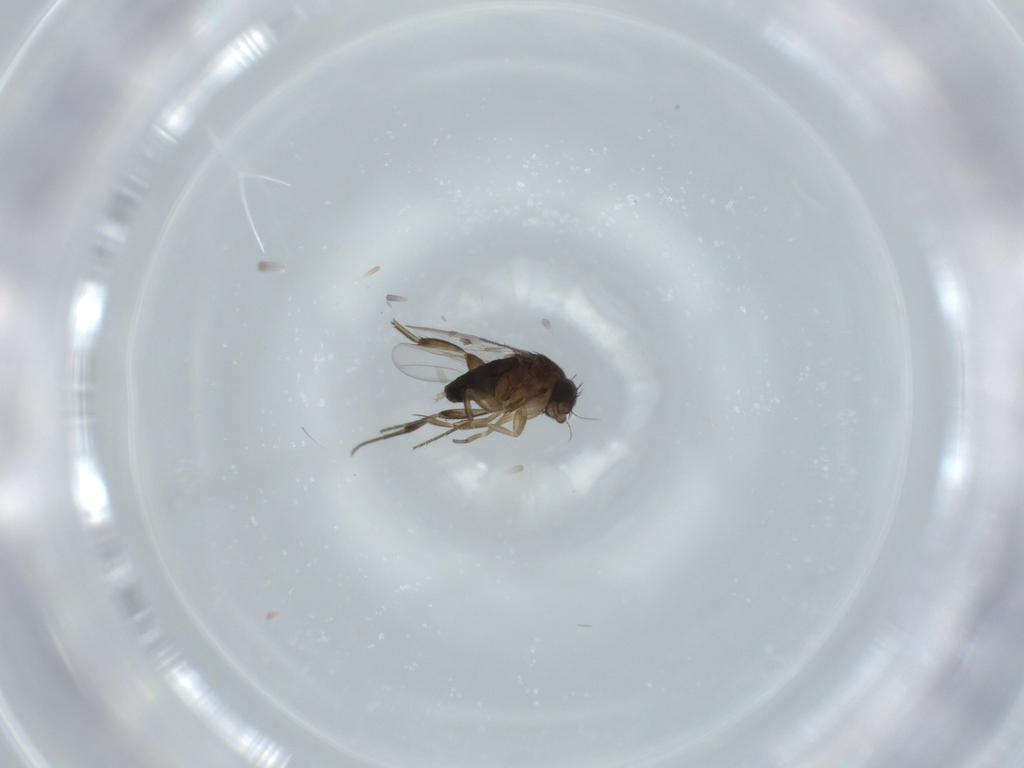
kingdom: Animalia
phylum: Arthropoda
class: Insecta
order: Diptera
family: Phoridae
